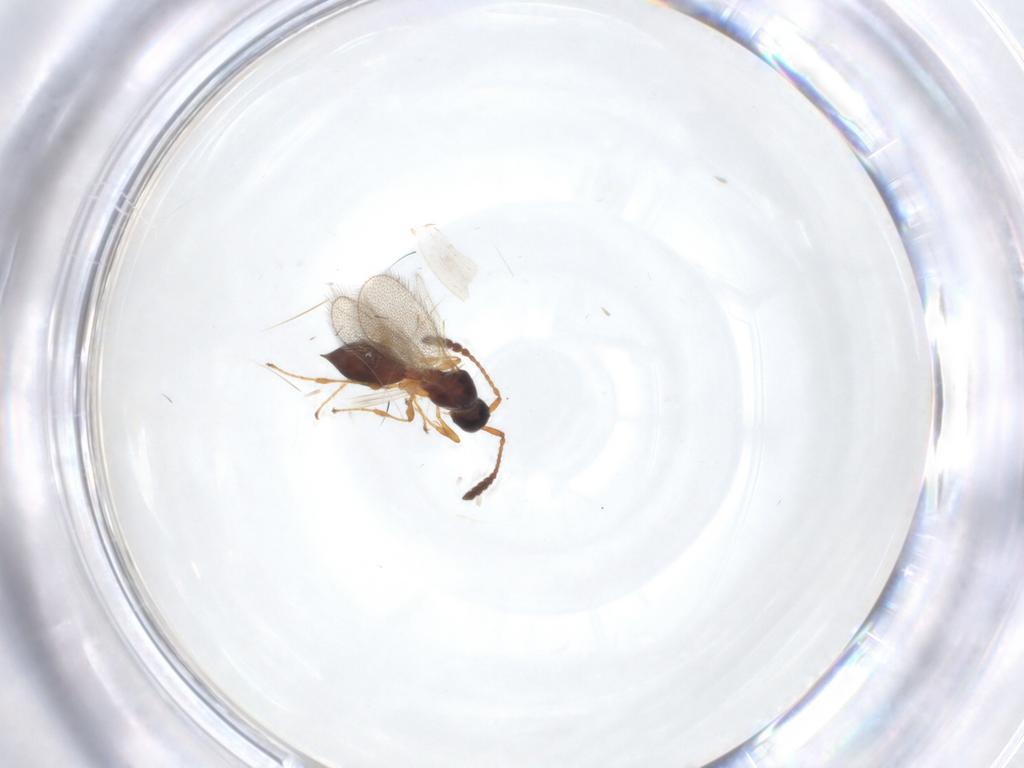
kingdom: Animalia
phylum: Arthropoda
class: Insecta
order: Hymenoptera
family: Diapriidae
